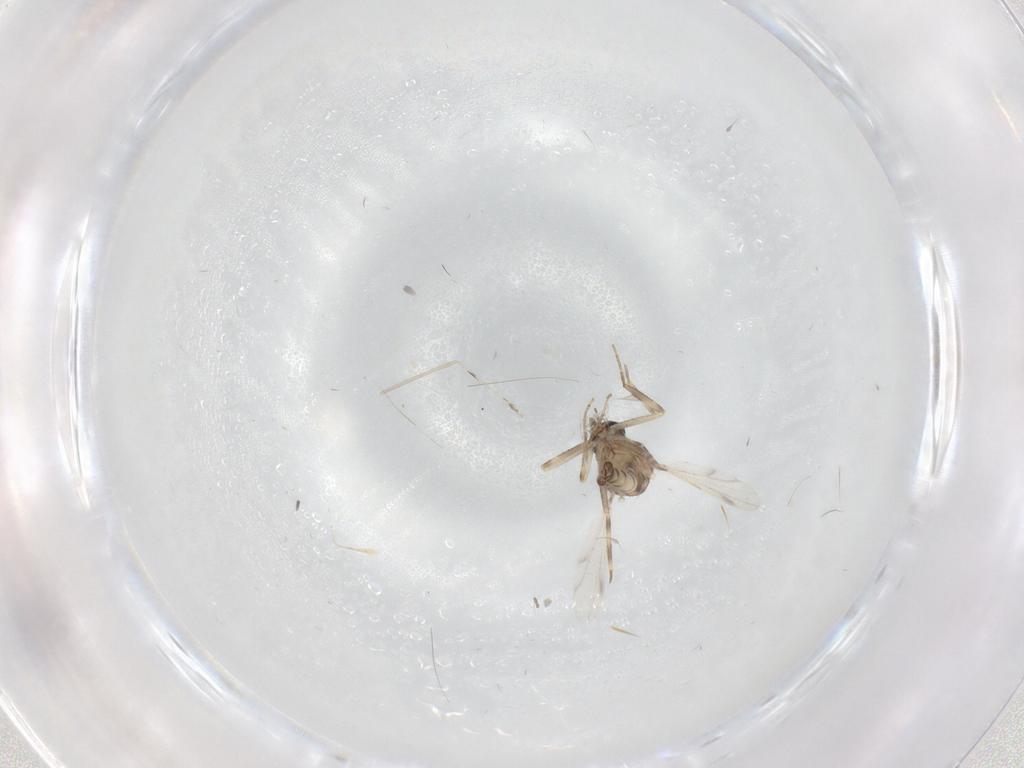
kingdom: Animalia
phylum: Arthropoda
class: Insecta
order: Diptera
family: Ceratopogonidae
